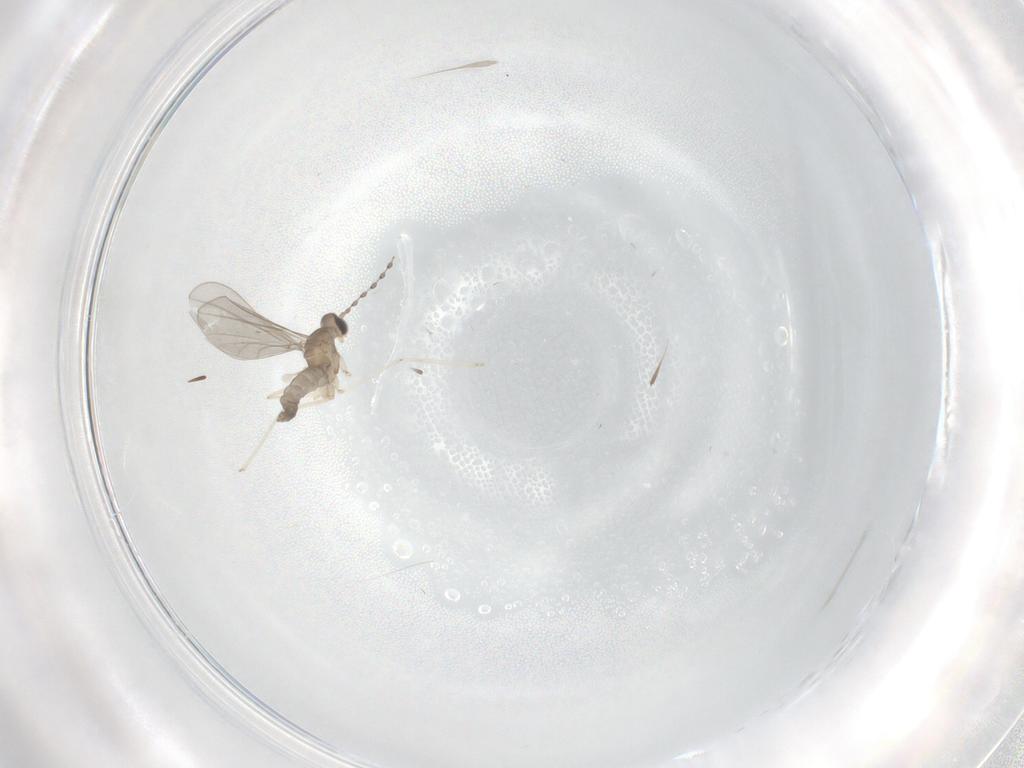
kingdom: Animalia
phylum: Arthropoda
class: Insecta
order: Diptera
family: Cecidomyiidae
